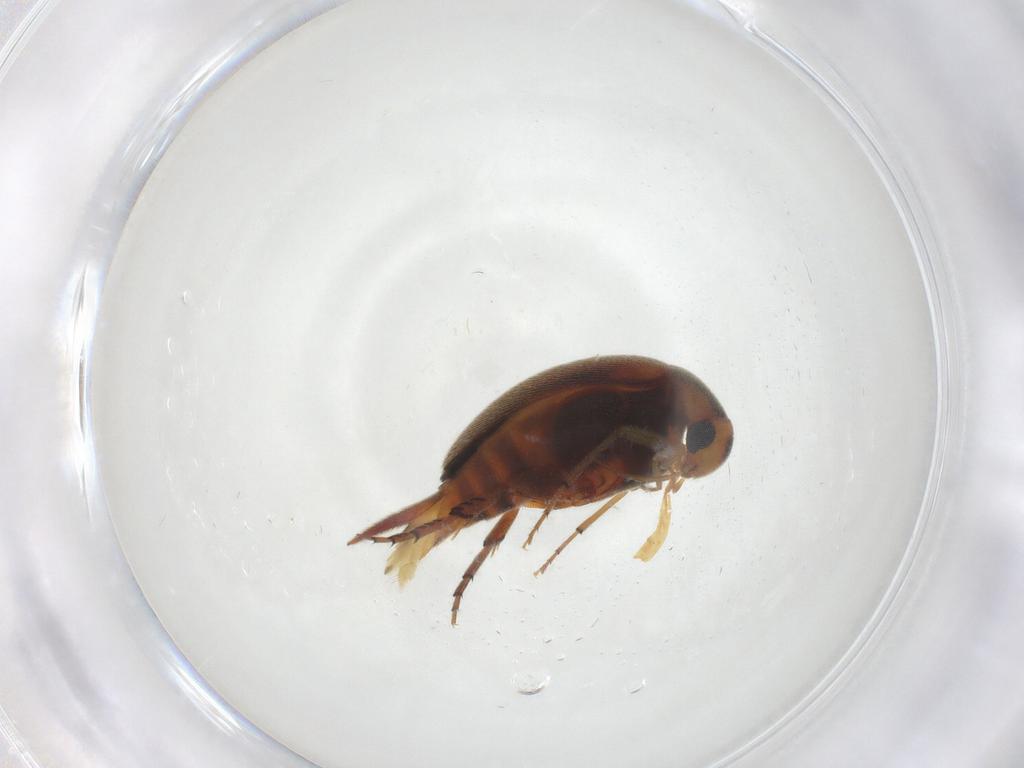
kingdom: Animalia
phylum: Arthropoda
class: Insecta
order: Coleoptera
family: Mordellidae
